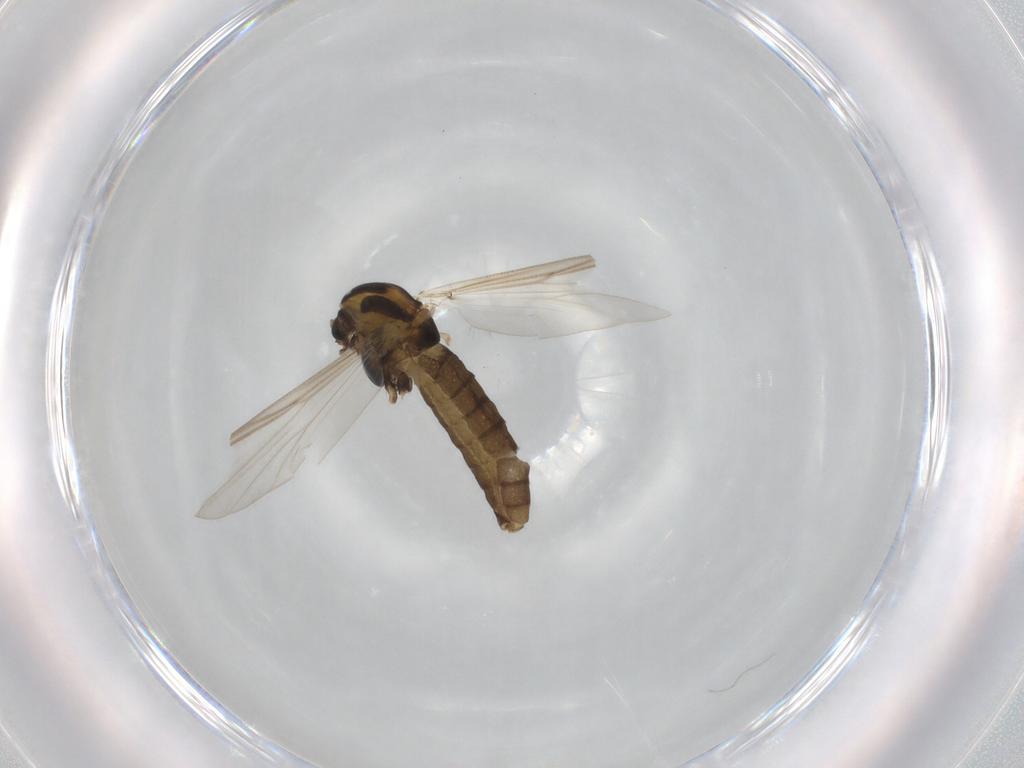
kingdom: Animalia
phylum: Arthropoda
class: Insecta
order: Diptera
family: Chironomidae
